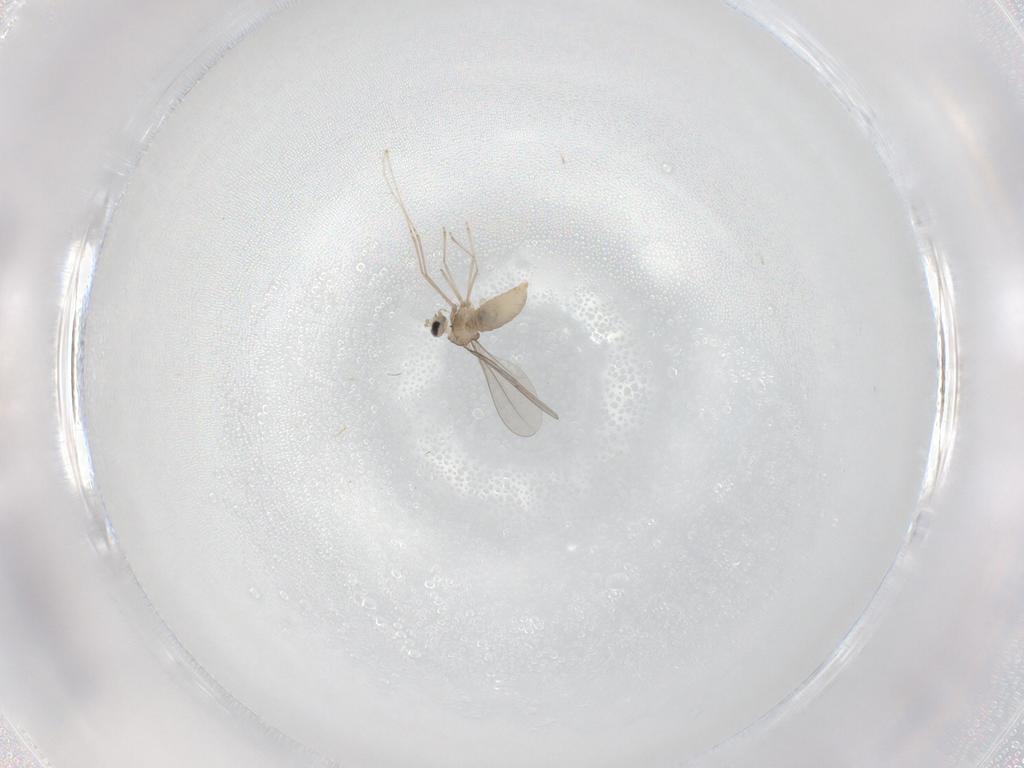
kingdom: Animalia
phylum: Arthropoda
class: Insecta
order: Diptera
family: Tabanidae
